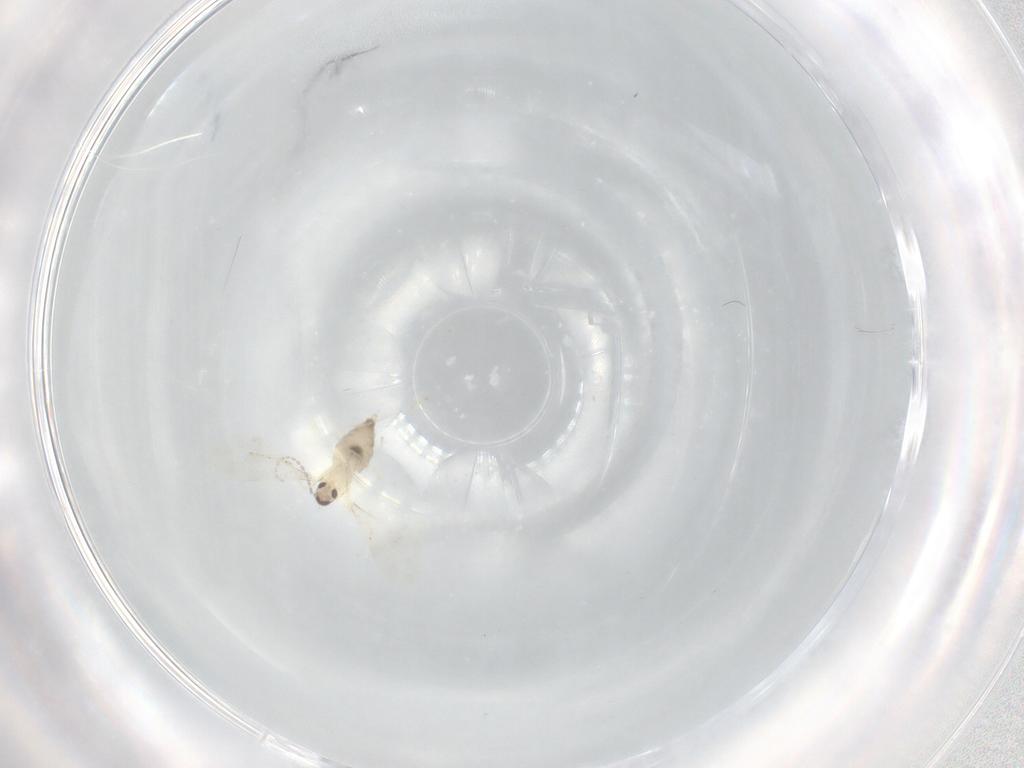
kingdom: Animalia
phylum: Arthropoda
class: Insecta
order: Diptera
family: Cecidomyiidae
